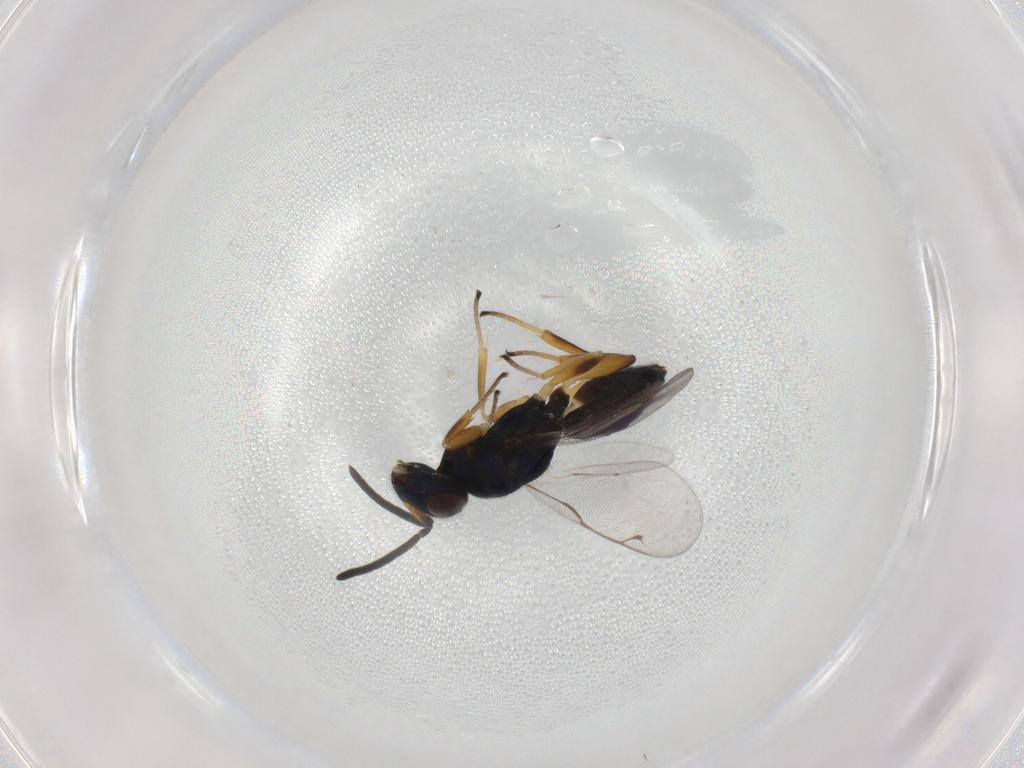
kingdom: Animalia
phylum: Arthropoda
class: Insecta
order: Hymenoptera
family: Eupelmidae
